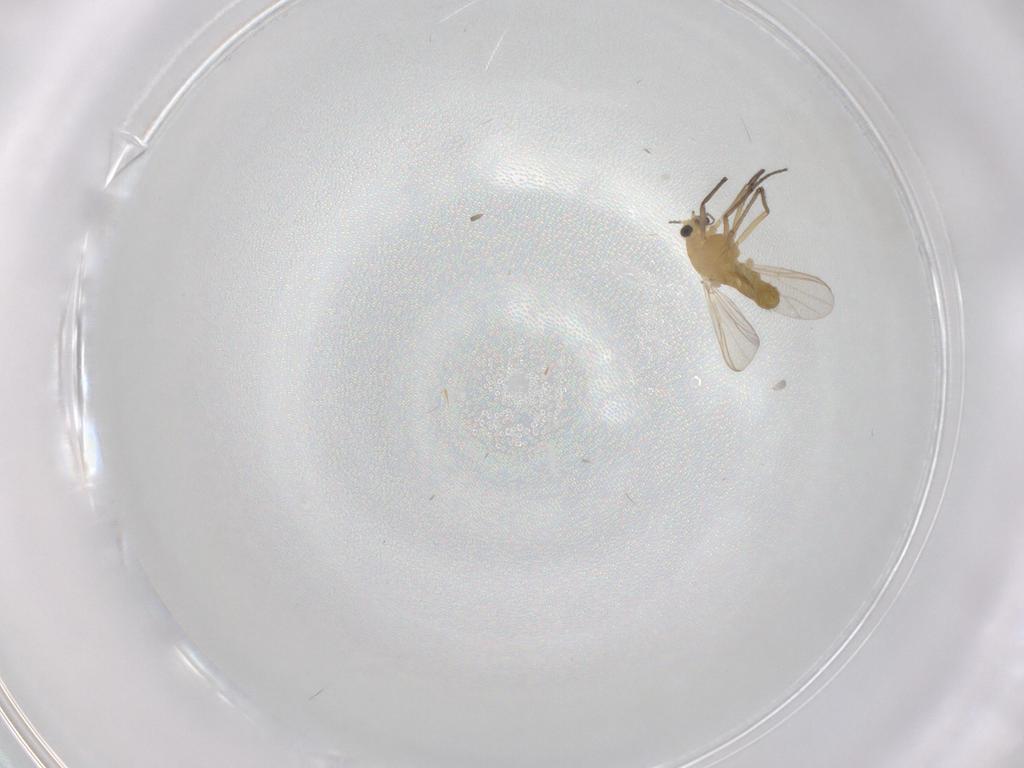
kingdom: Animalia
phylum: Arthropoda
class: Insecta
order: Diptera
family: Chironomidae
